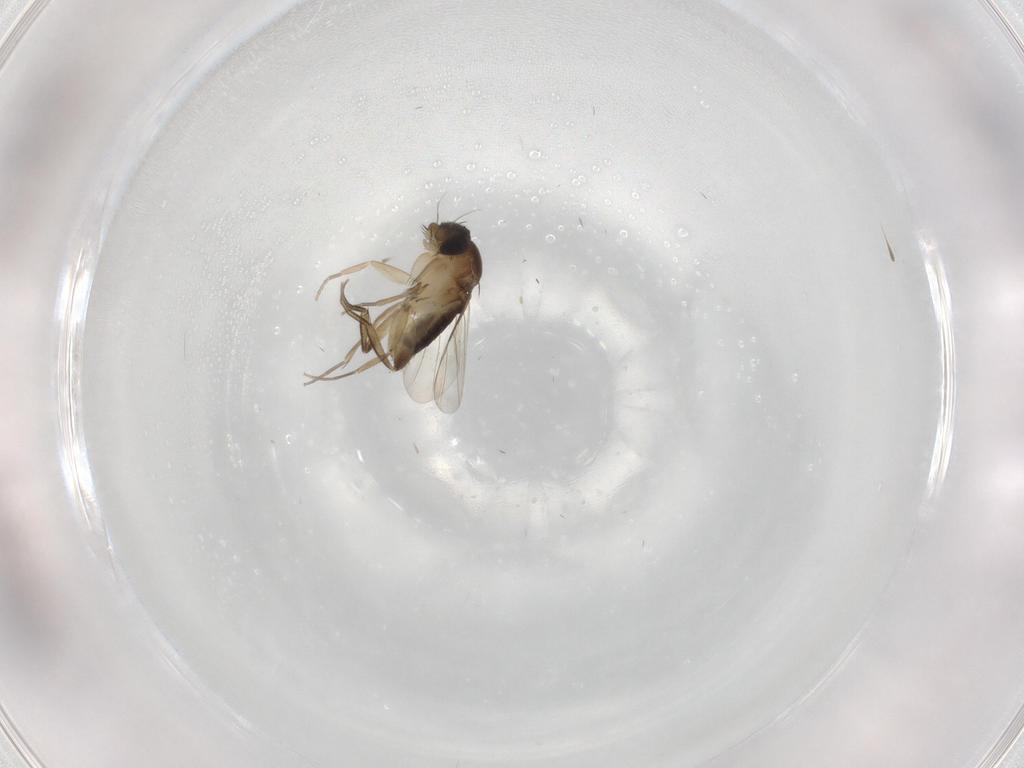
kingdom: Animalia
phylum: Arthropoda
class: Insecta
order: Diptera
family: Phoridae
